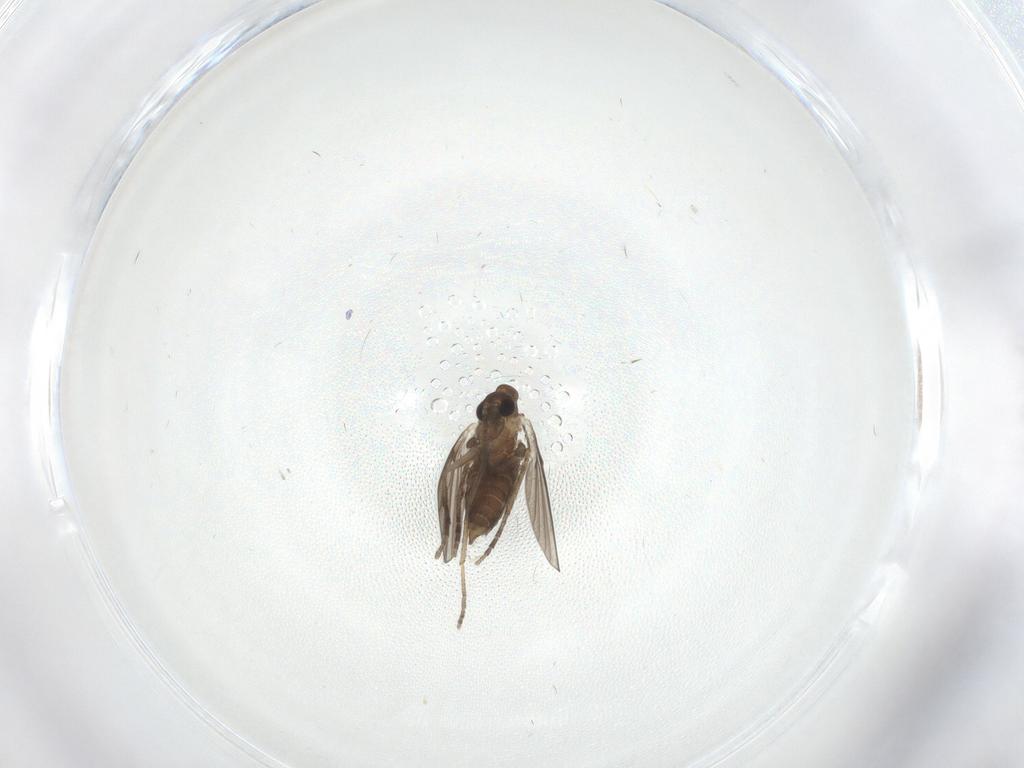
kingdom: Animalia
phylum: Arthropoda
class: Insecta
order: Diptera
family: Psychodidae
